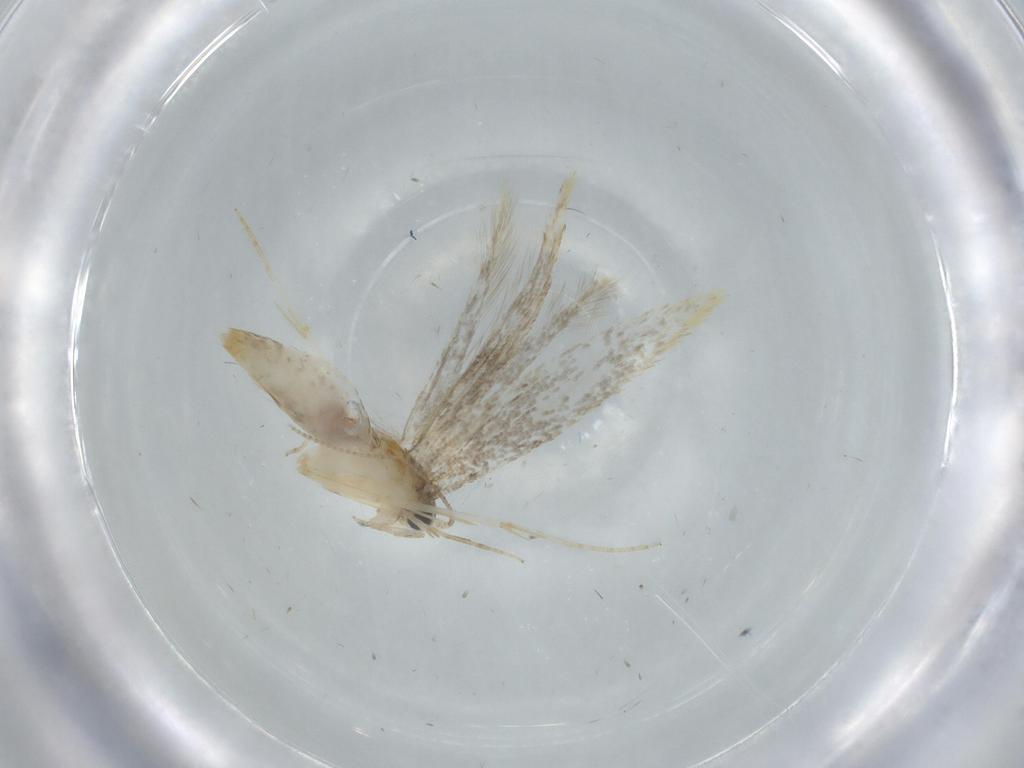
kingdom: Animalia
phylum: Arthropoda
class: Insecta
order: Lepidoptera
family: Tineidae
